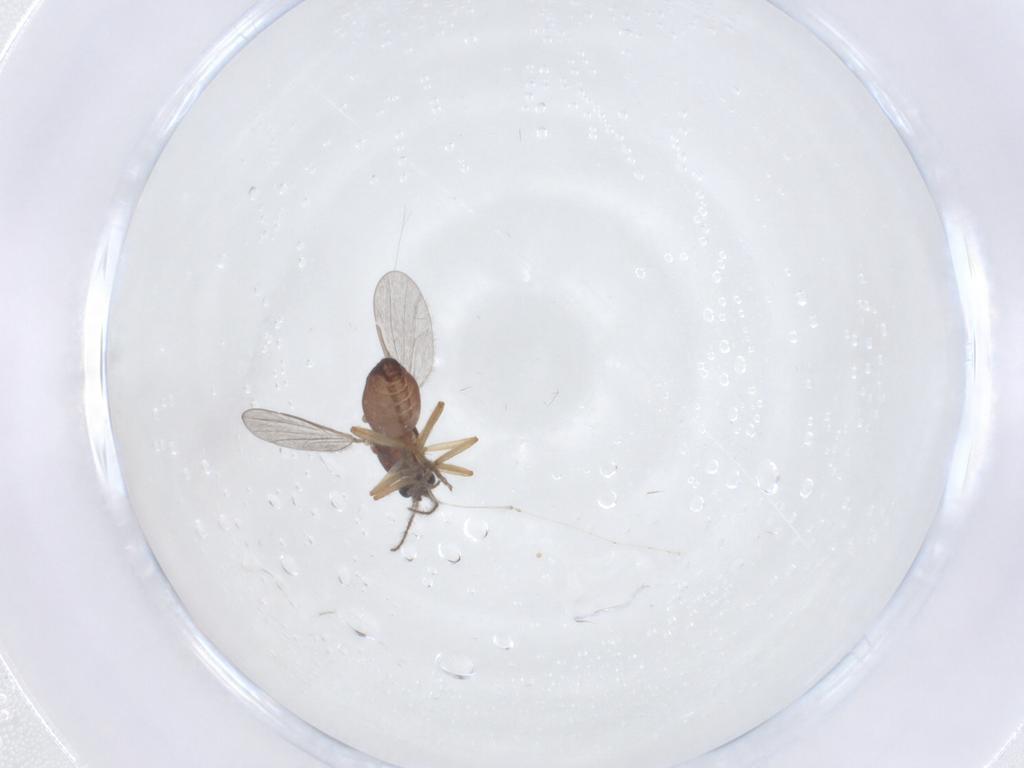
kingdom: Animalia
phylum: Arthropoda
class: Insecta
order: Diptera
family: Ceratopogonidae
